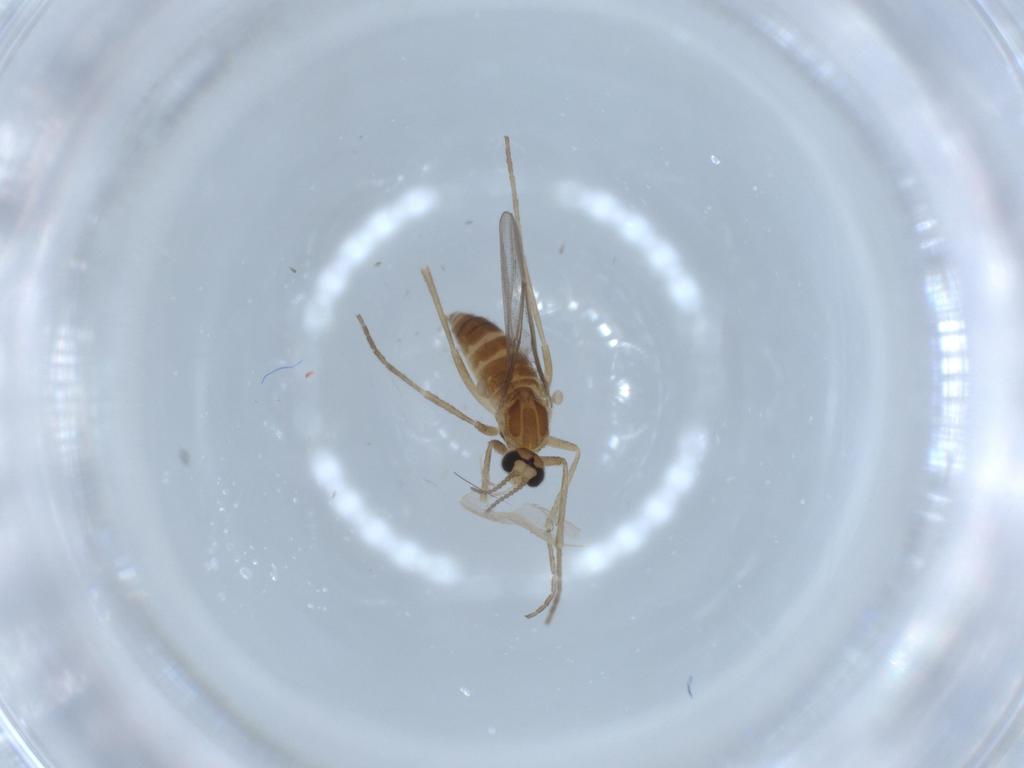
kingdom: Animalia
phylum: Arthropoda
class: Insecta
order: Diptera
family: Cecidomyiidae
